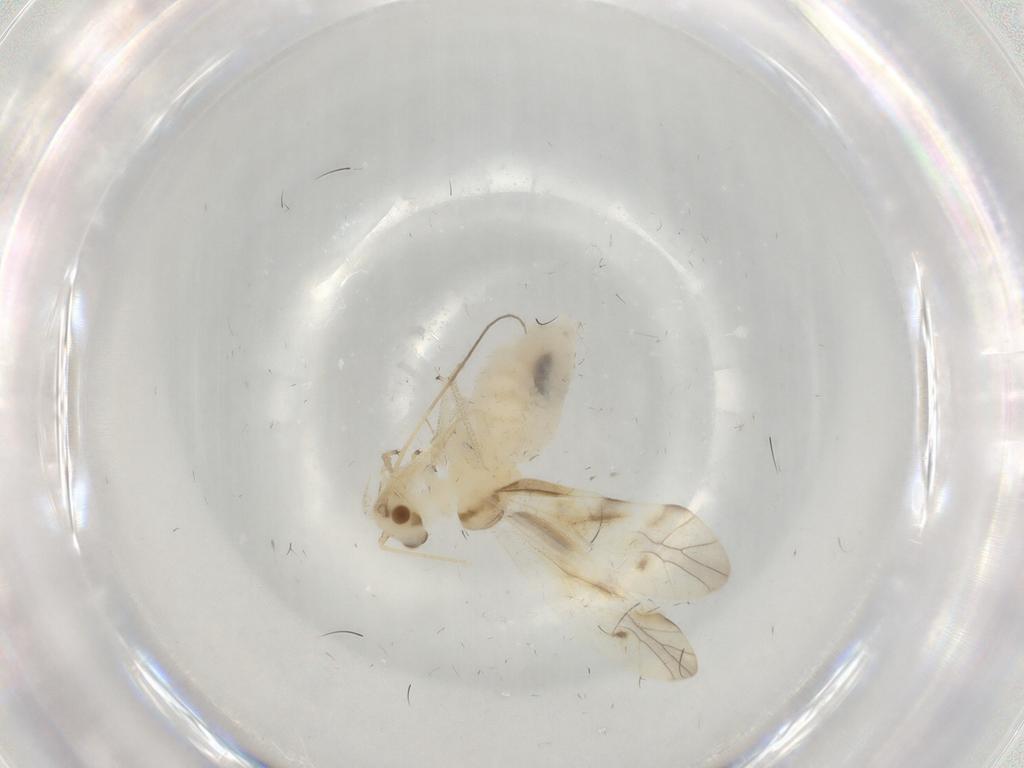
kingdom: Animalia
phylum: Arthropoda
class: Insecta
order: Psocodea
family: Caeciliusidae
